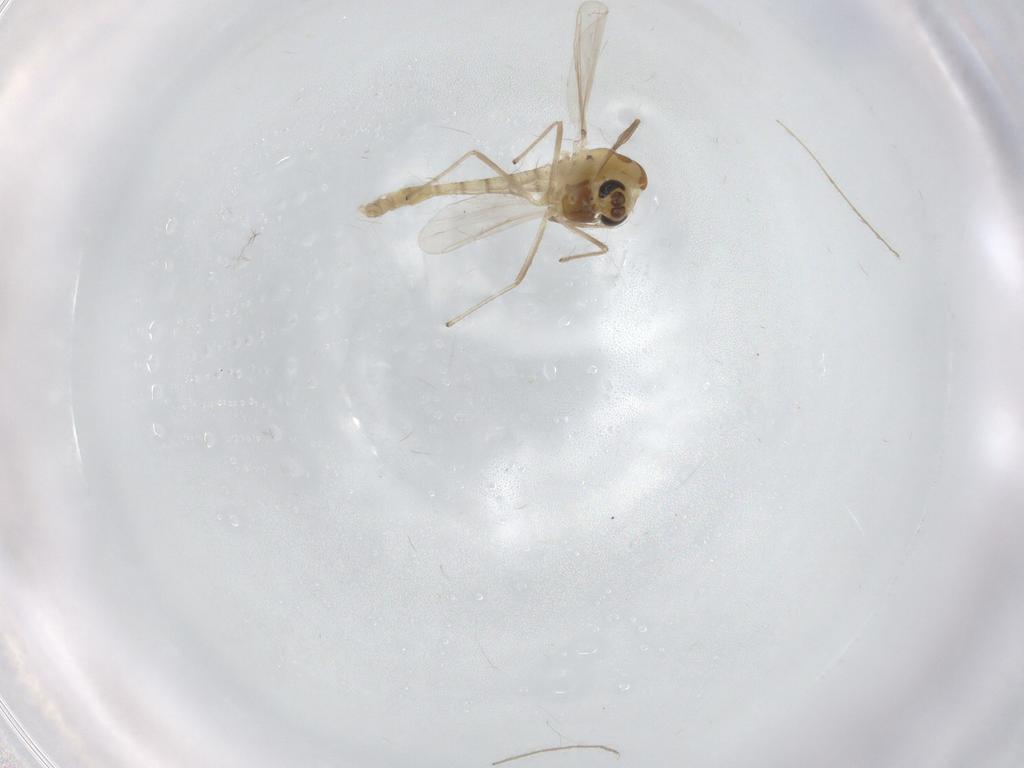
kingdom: Animalia
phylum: Arthropoda
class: Insecta
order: Diptera
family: Chironomidae
